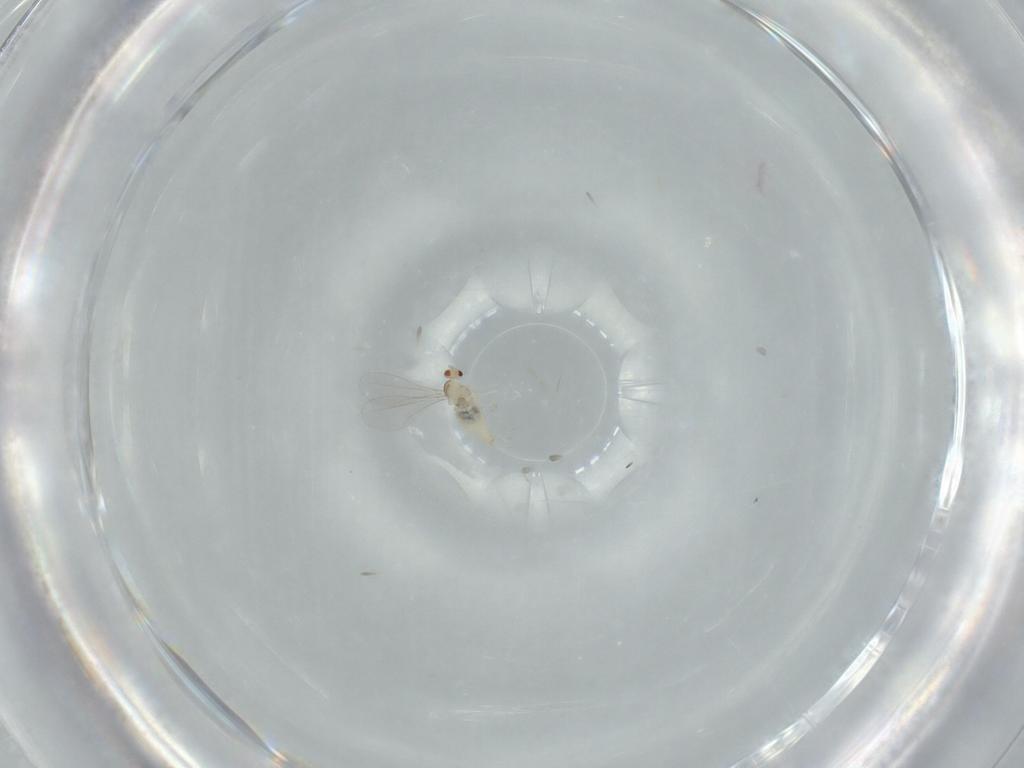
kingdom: Animalia
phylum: Arthropoda
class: Insecta
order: Diptera
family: Cecidomyiidae
